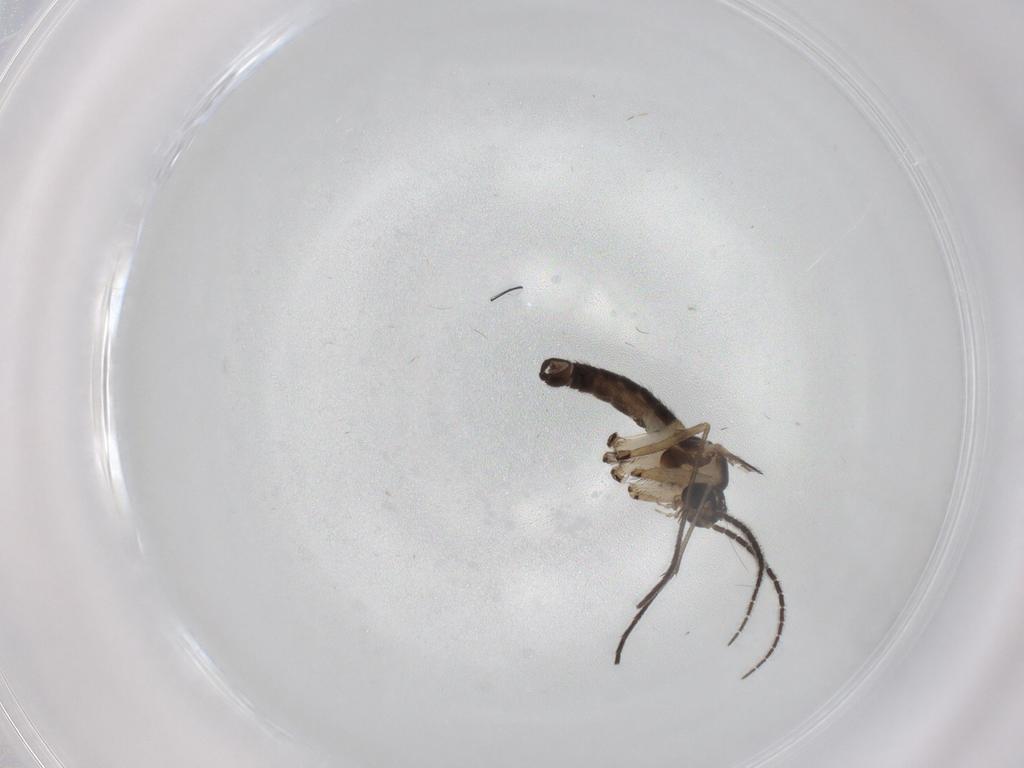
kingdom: Animalia
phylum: Arthropoda
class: Insecta
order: Diptera
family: Sciaridae
